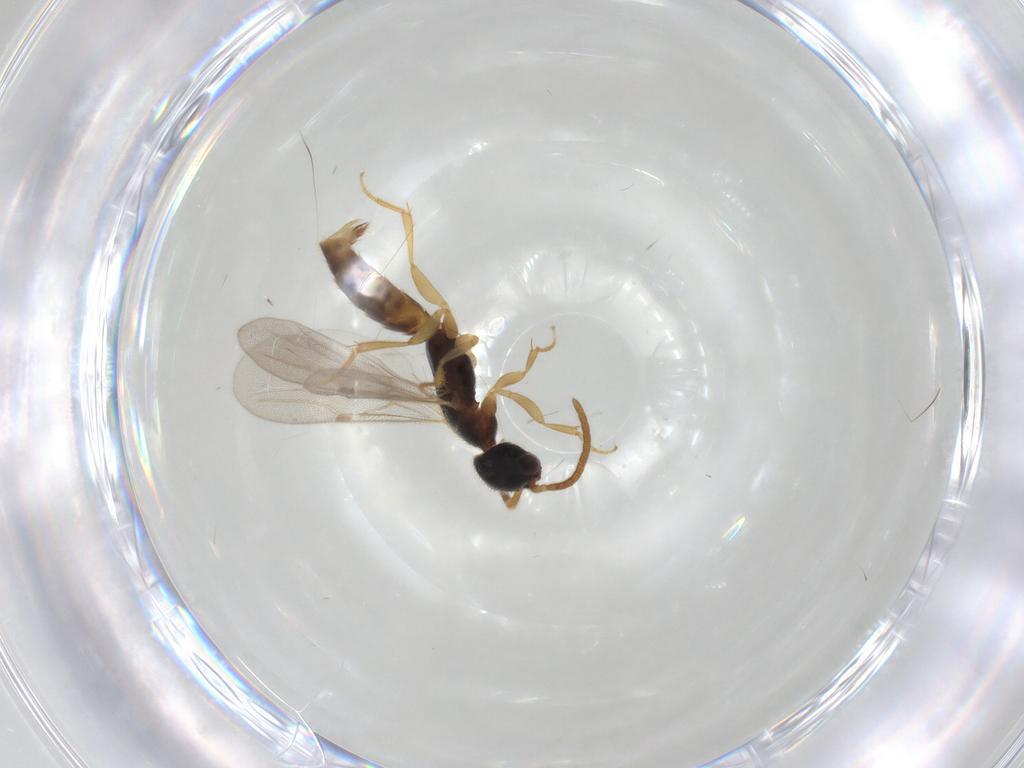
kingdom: Animalia
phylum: Arthropoda
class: Insecta
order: Hymenoptera
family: Bethylidae
